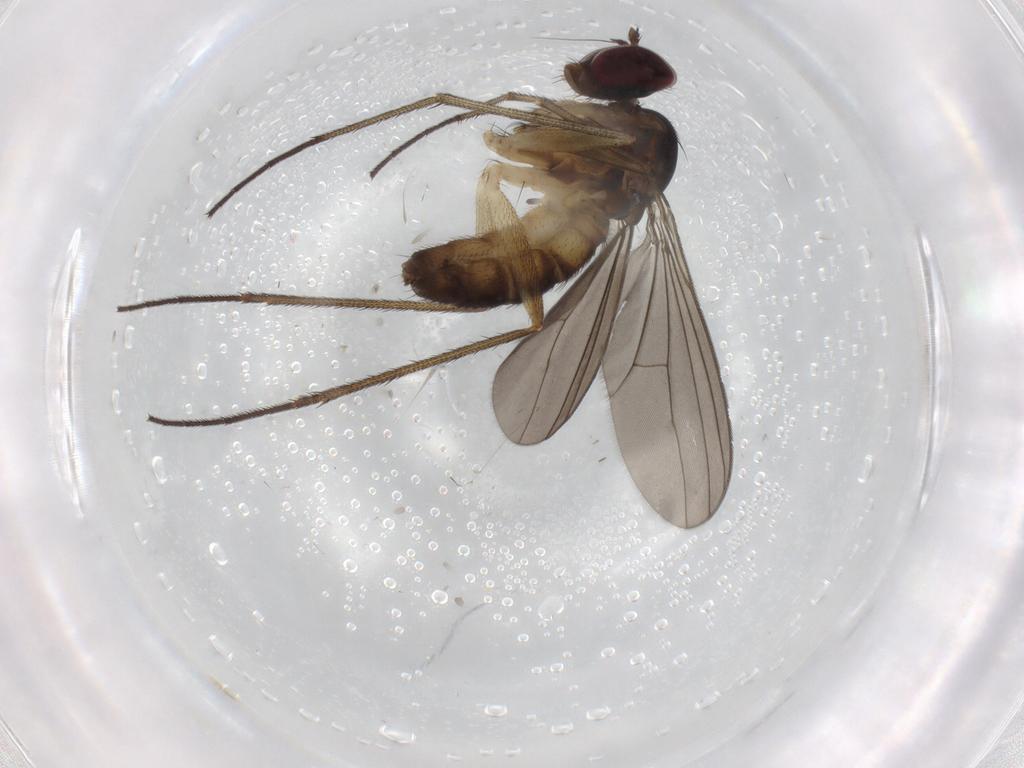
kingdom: Animalia
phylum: Arthropoda
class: Insecta
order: Diptera
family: Dolichopodidae
